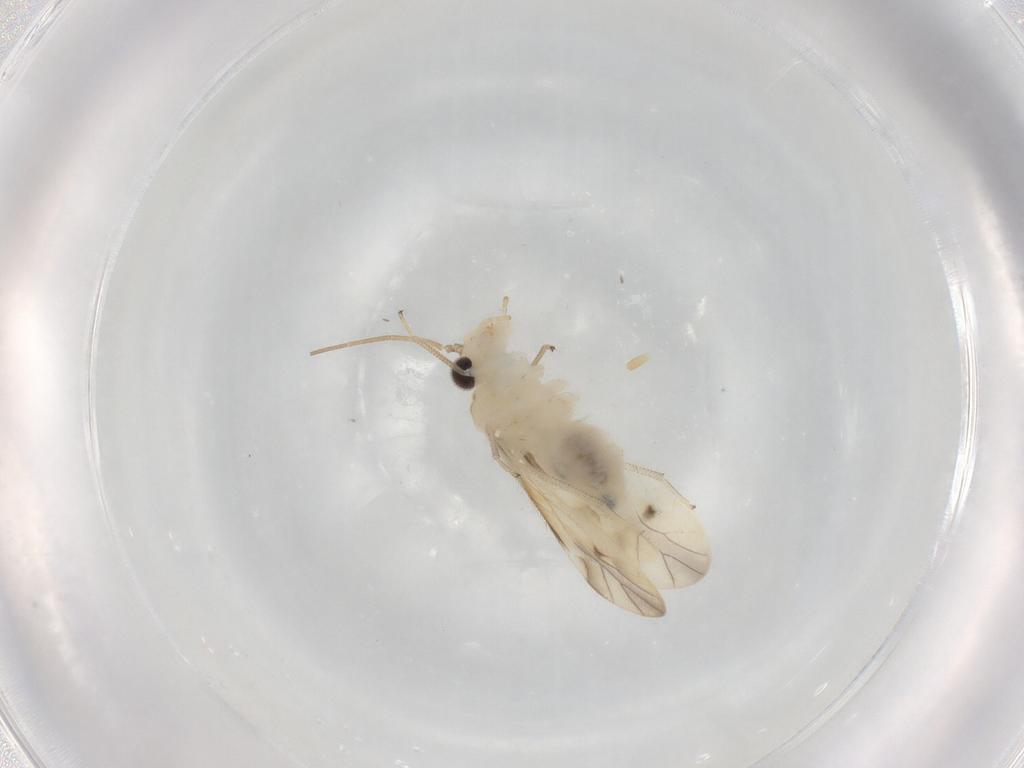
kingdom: Animalia
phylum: Arthropoda
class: Insecta
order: Psocodea
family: Caeciliusidae
